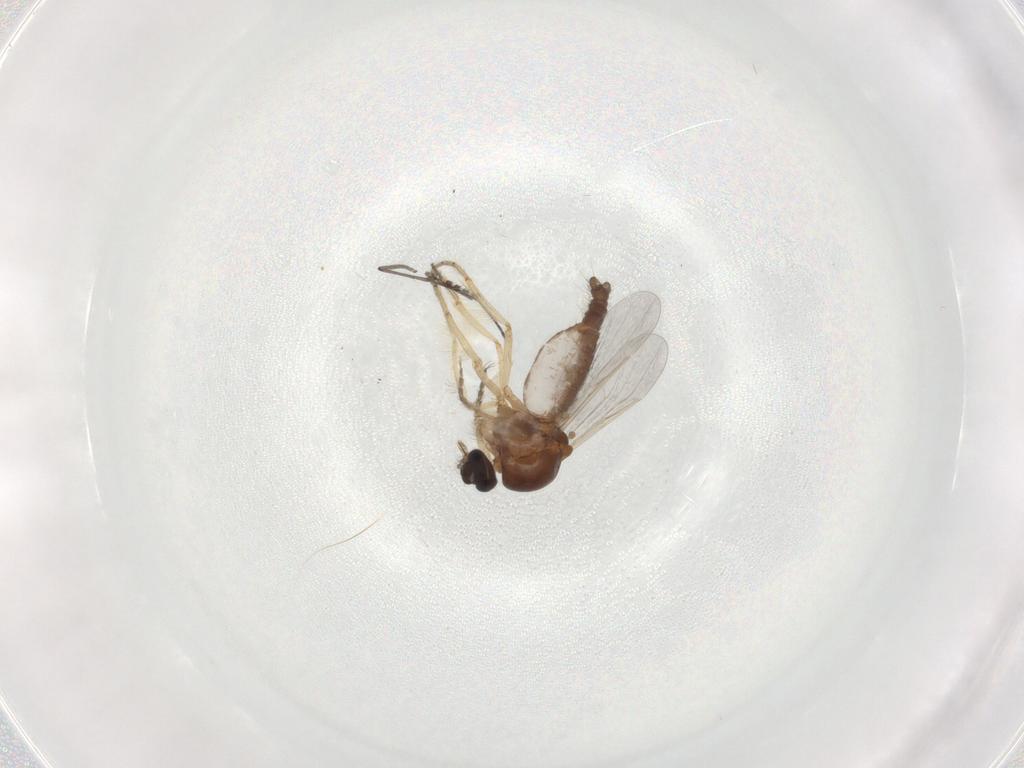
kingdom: Animalia
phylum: Arthropoda
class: Insecta
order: Diptera
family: Chironomidae
